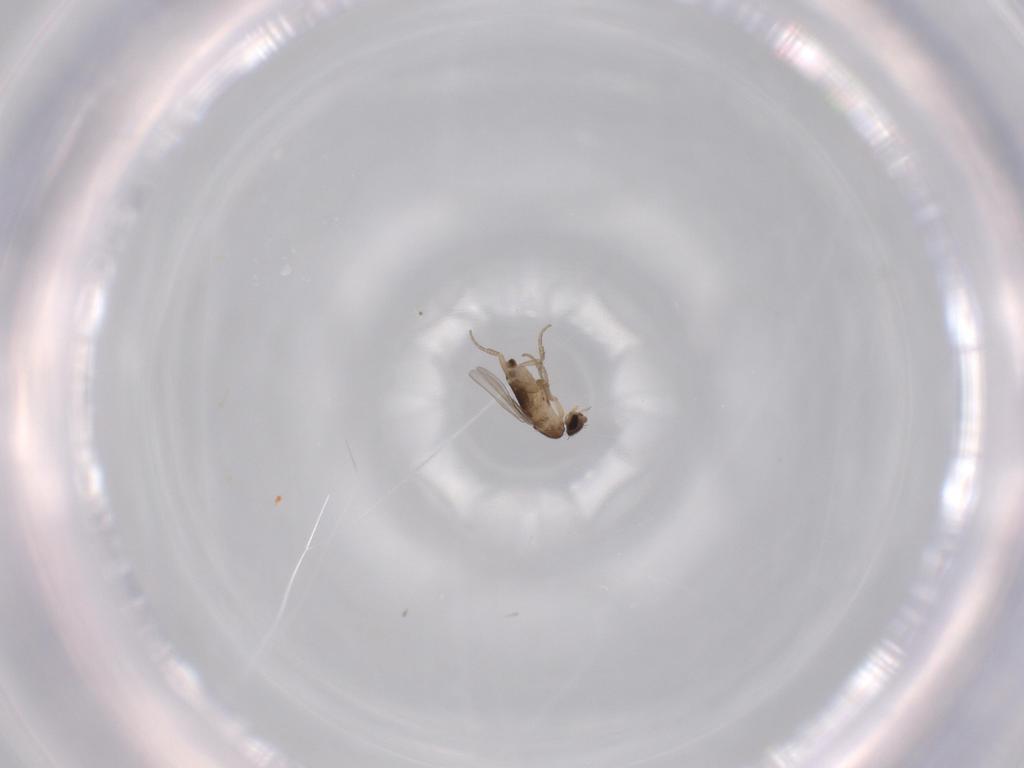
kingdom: Animalia
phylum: Arthropoda
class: Insecta
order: Diptera
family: Phoridae
